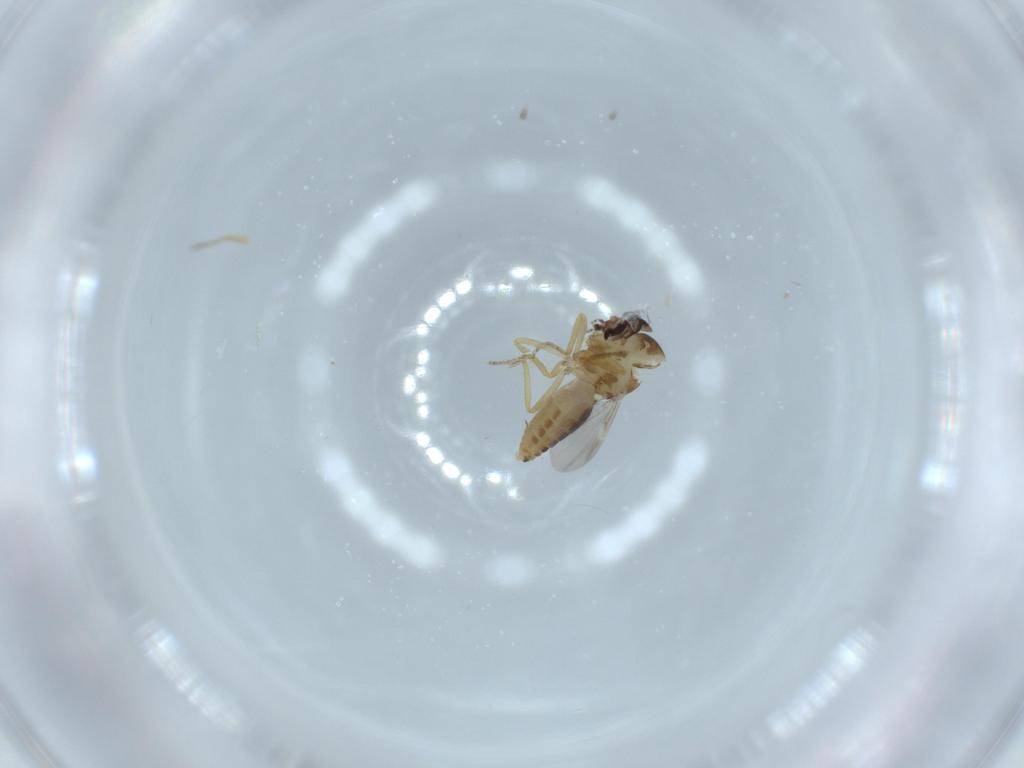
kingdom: Animalia
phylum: Arthropoda
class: Insecta
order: Diptera
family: Ceratopogonidae
